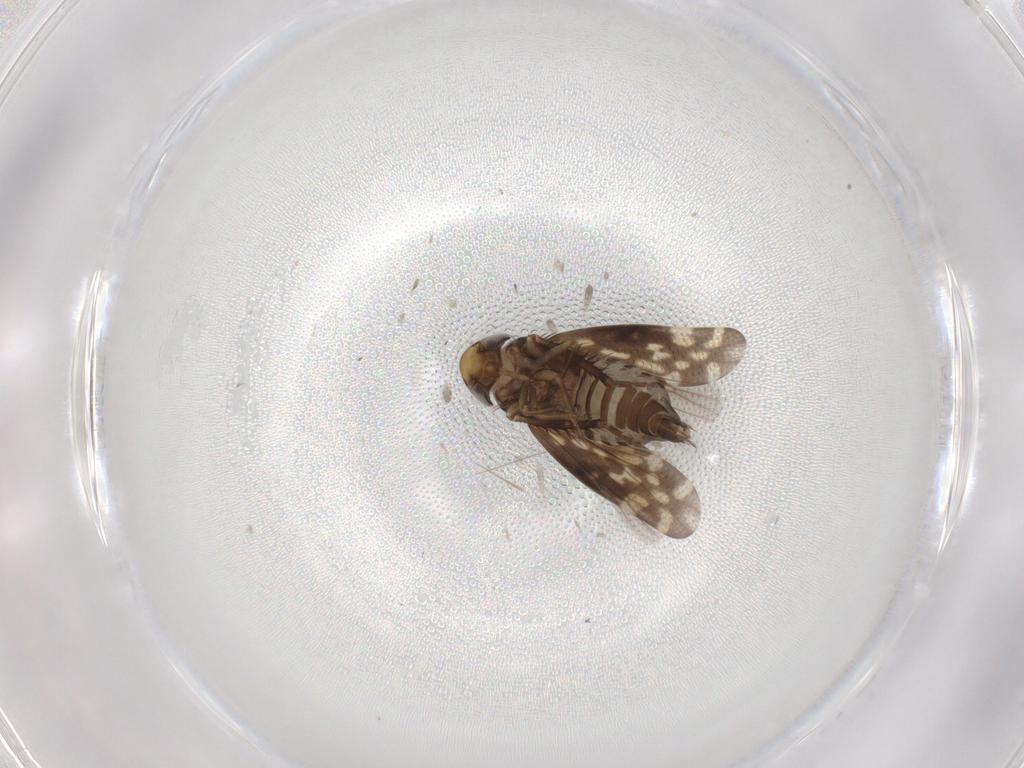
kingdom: Animalia
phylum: Arthropoda
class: Insecta
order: Hemiptera
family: Cicadellidae
